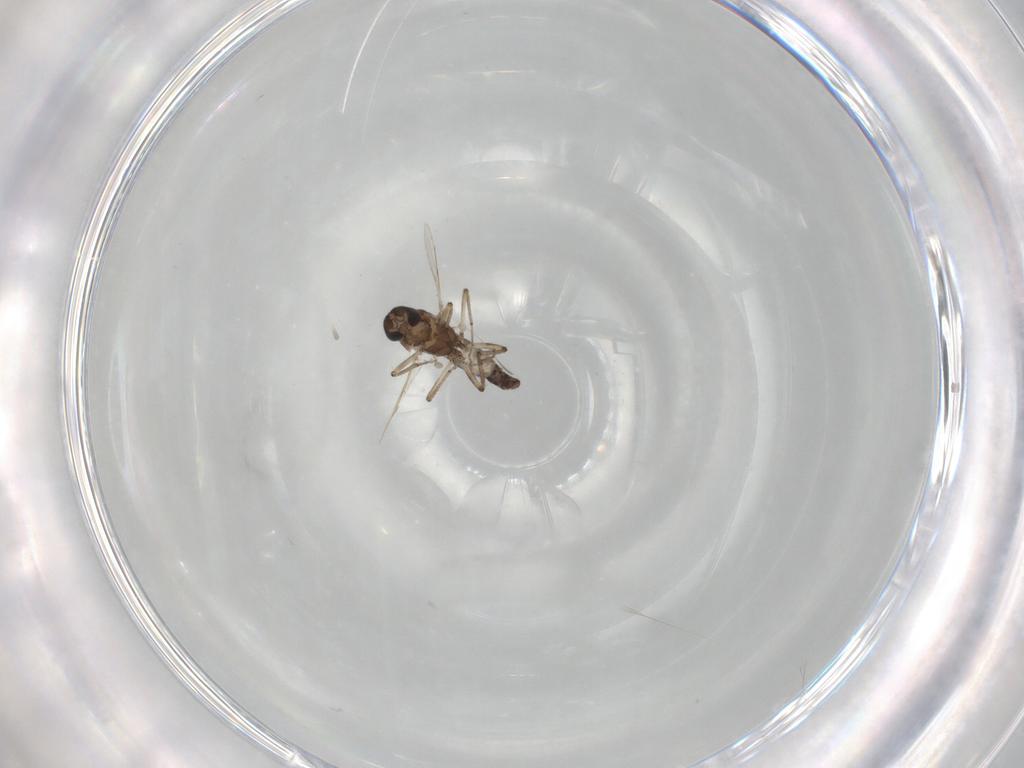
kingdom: Animalia
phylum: Arthropoda
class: Insecta
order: Diptera
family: Ceratopogonidae
